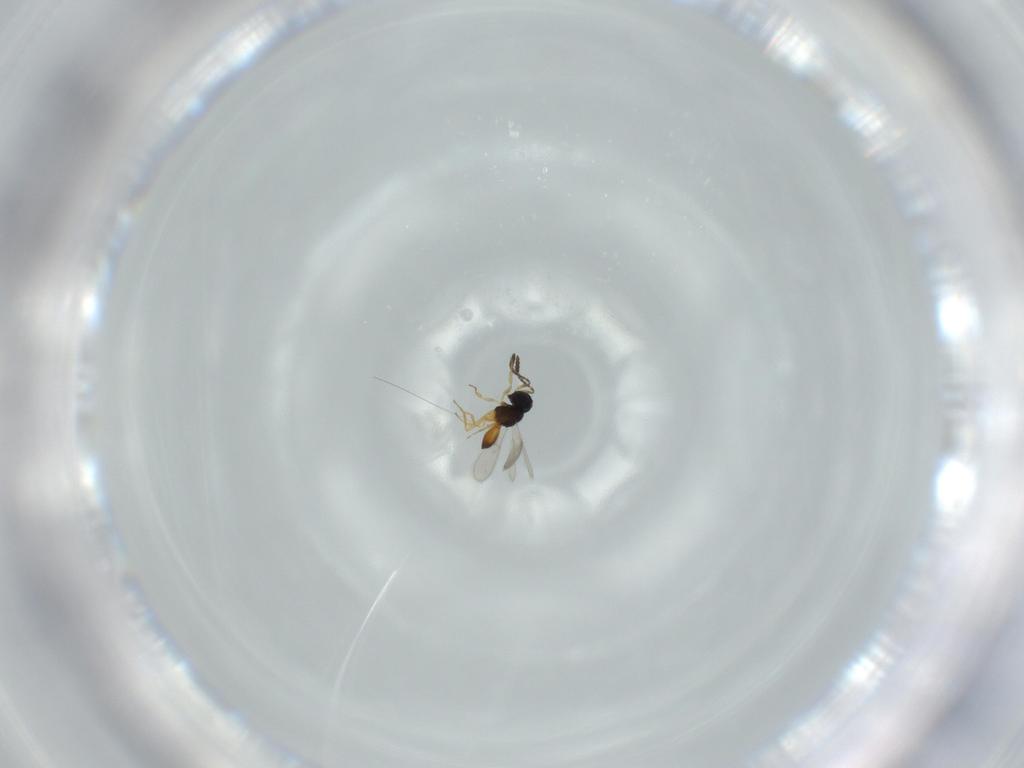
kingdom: Animalia
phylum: Arthropoda
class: Insecta
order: Hymenoptera
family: Scelionidae
